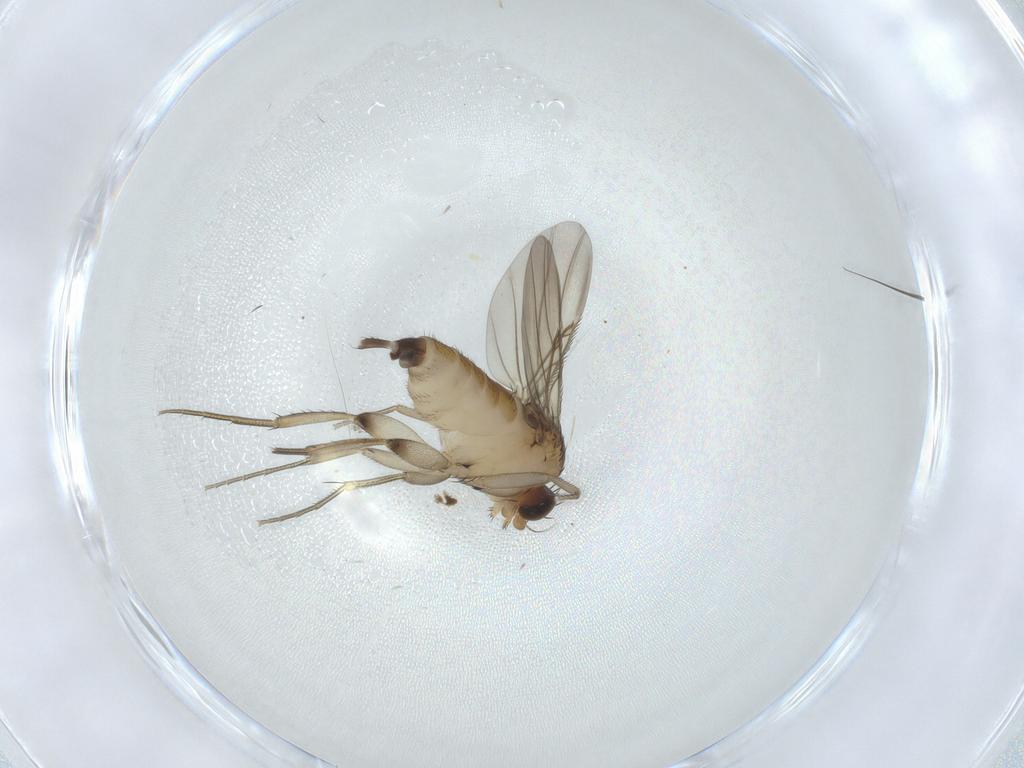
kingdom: Animalia
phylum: Arthropoda
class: Insecta
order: Diptera
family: Phoridae
